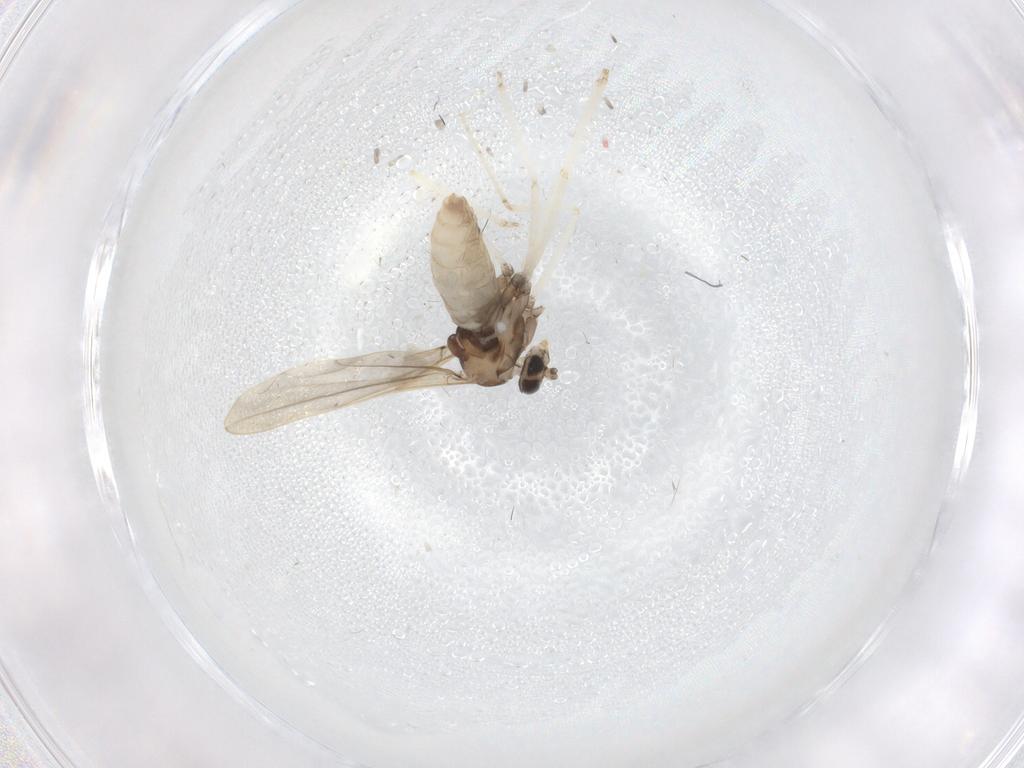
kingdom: Animalia
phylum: Arthropoda
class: Insecta
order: Diptera
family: Cecidomyiidae
